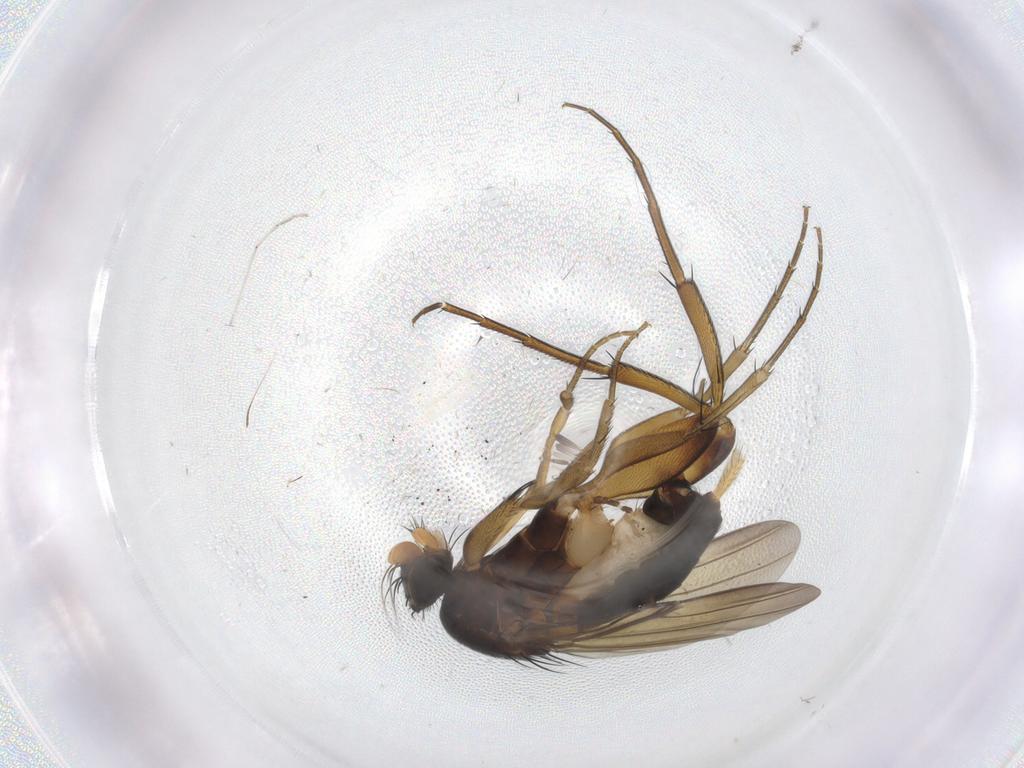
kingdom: Animalia
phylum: Arthropoda
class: Insecta
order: Diptera
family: Phoridae
